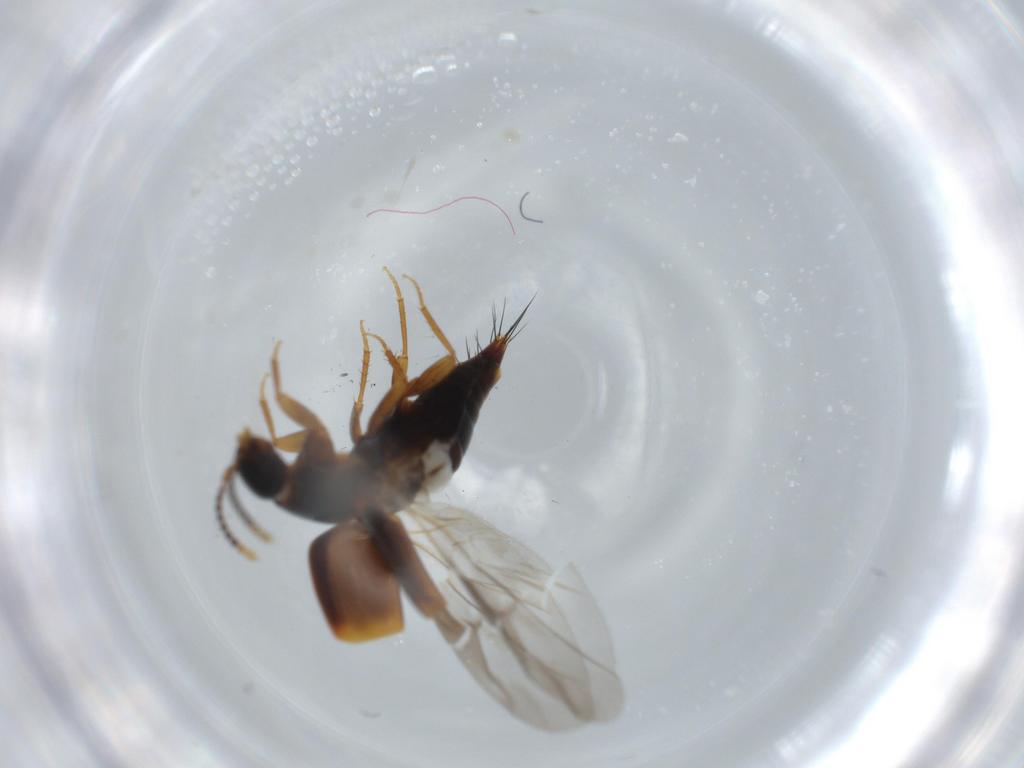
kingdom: Animalia
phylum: Arthropoda
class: Insecta
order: Coleoptera
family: Staphylinidae
